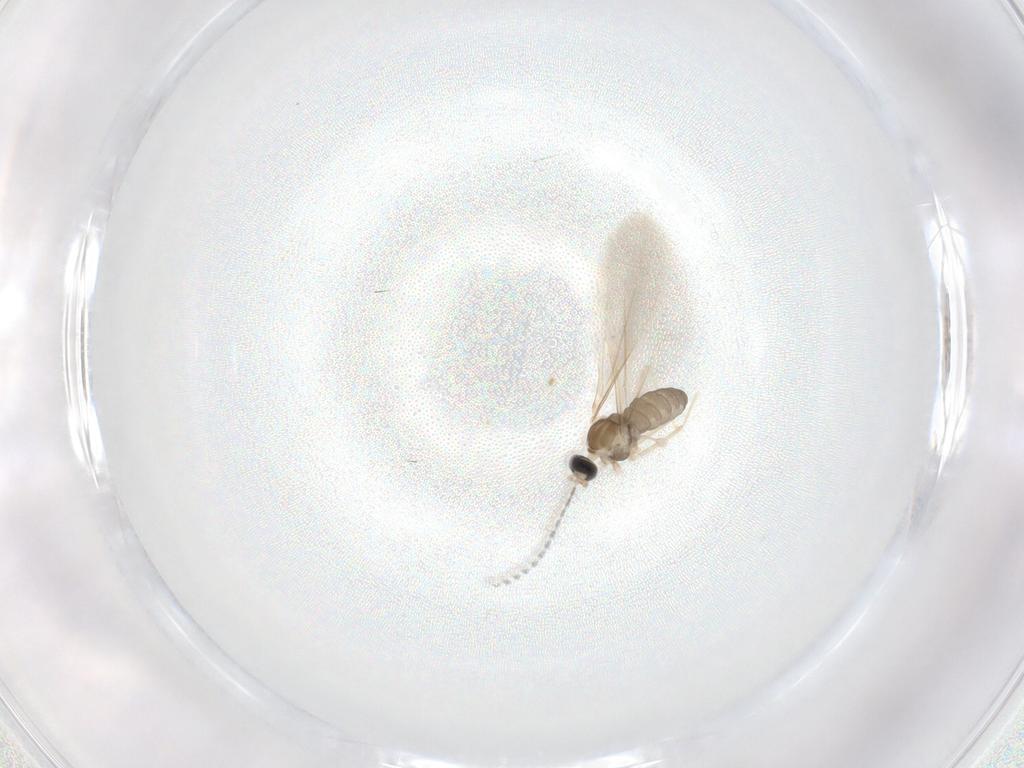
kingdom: Animalia
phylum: Arthropoda
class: Insecta
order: Diptera
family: Cecidomyiidae
